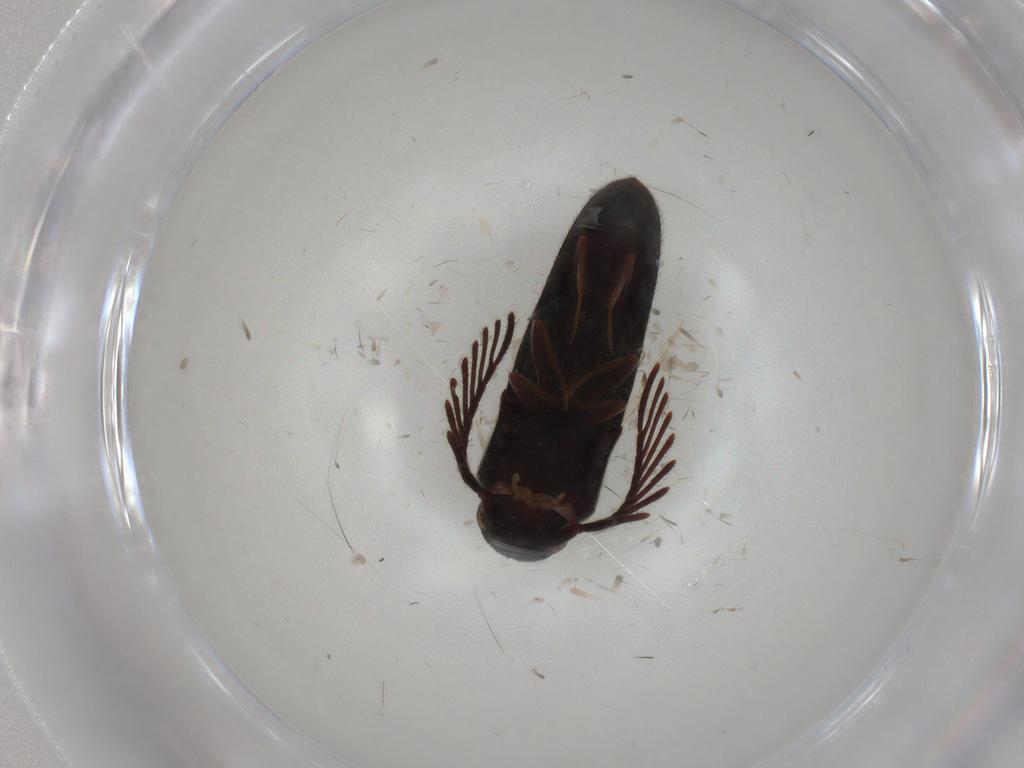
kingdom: Animalia
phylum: Arthropoda
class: Insecta
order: Coleoptera
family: Eucnemidae
